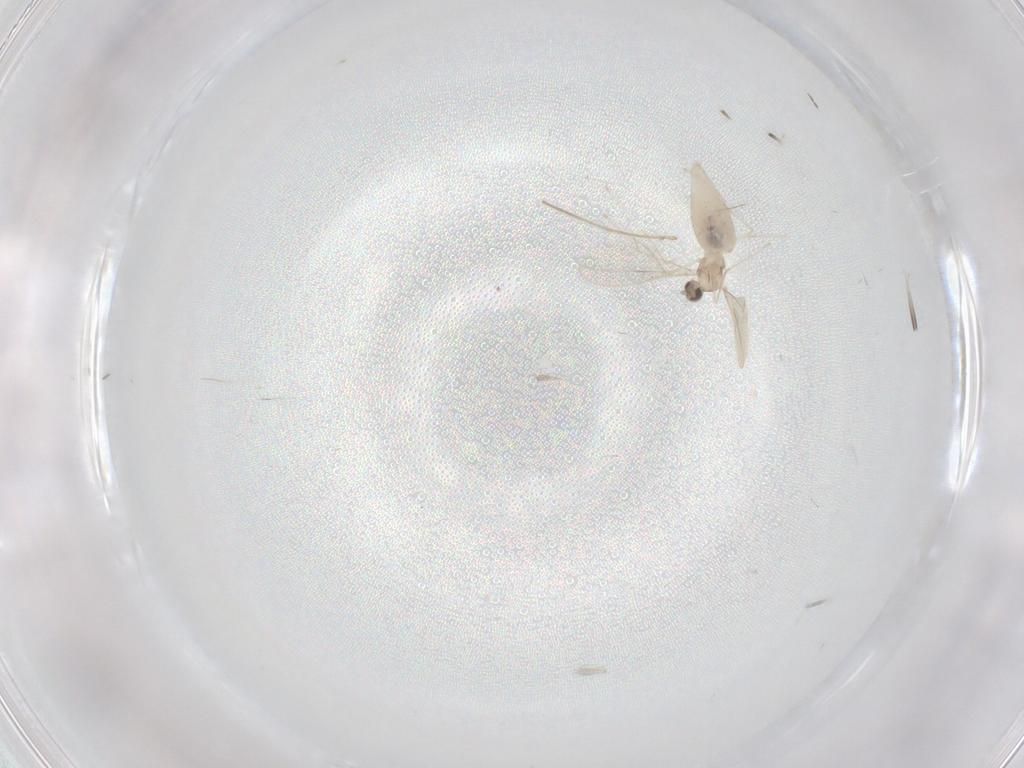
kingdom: Animalia
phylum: Arthropoda
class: Insecta
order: Diptera
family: Cecidomyiidae
